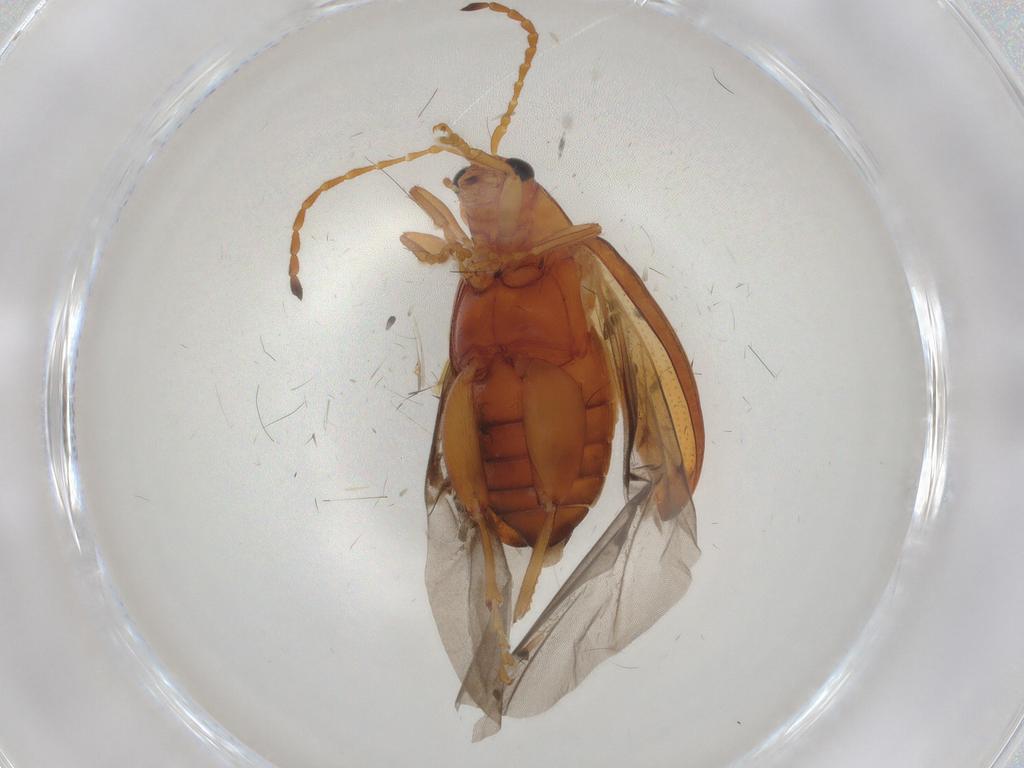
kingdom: Animalia
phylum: Arthropoda
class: Insecta
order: Coleoptera
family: Chrysomelidae
